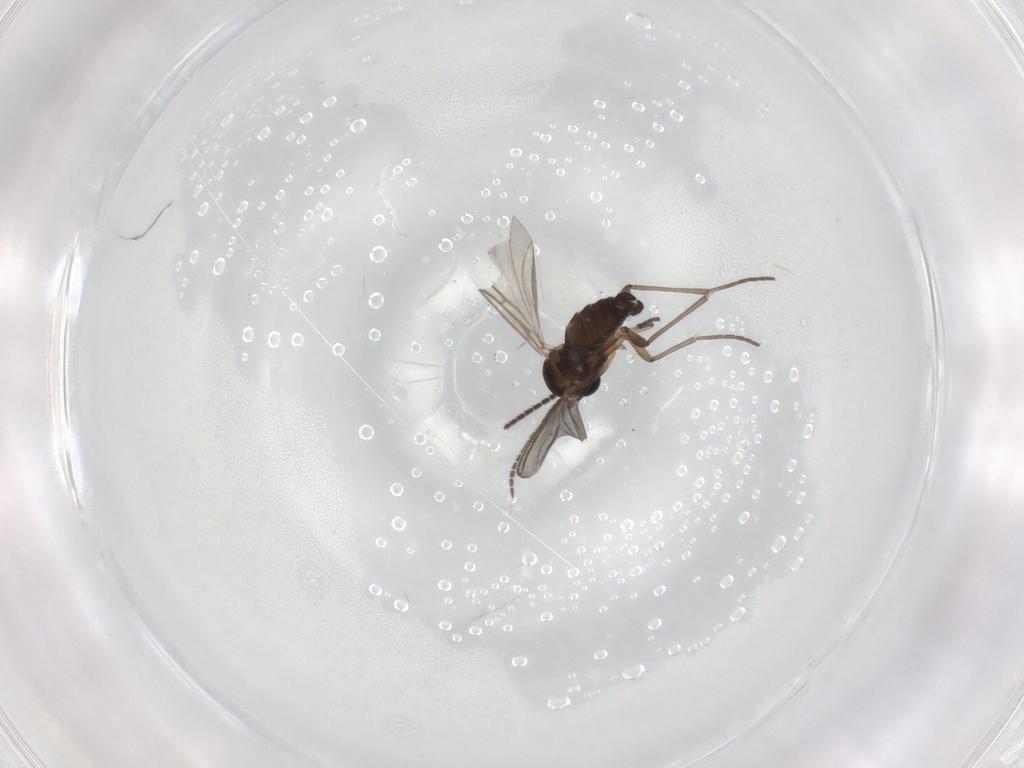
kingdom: Animalia
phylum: Arthropoda
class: Insecta
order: Diptera
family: Sciaridae
